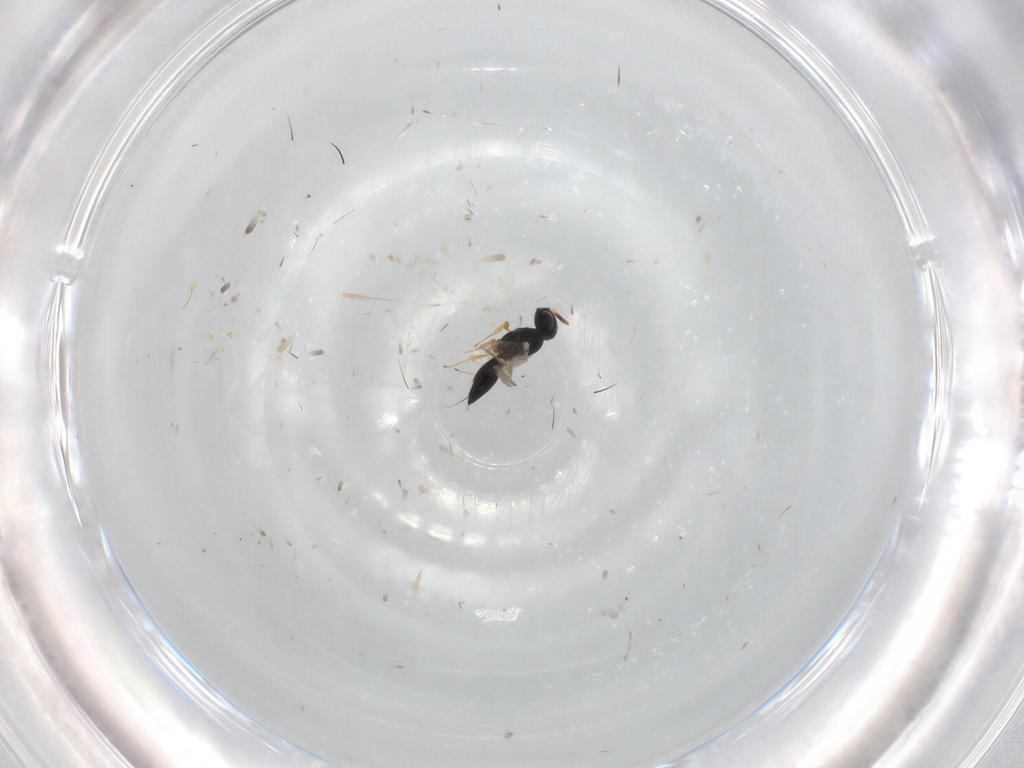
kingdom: Animalia
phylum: Arthropoda
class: Insecta
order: Hymenoptera
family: Scelionidae
